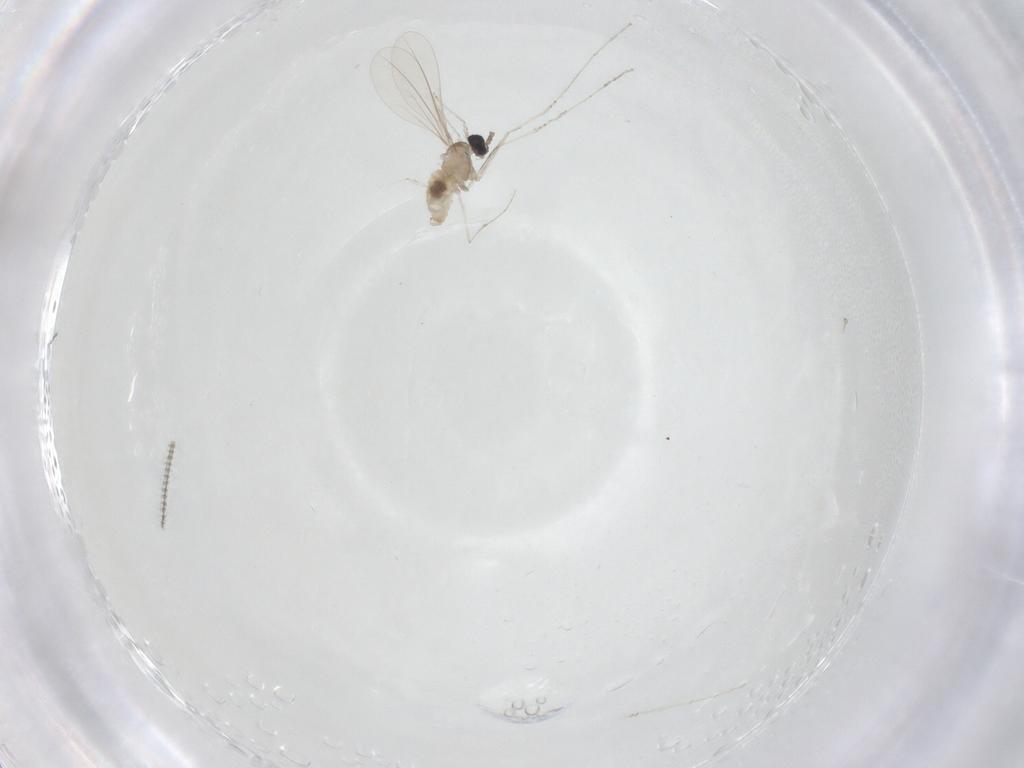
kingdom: Animalia
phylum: Arthropoda
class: Insecta
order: Diptera
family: Cecidomyiidae
